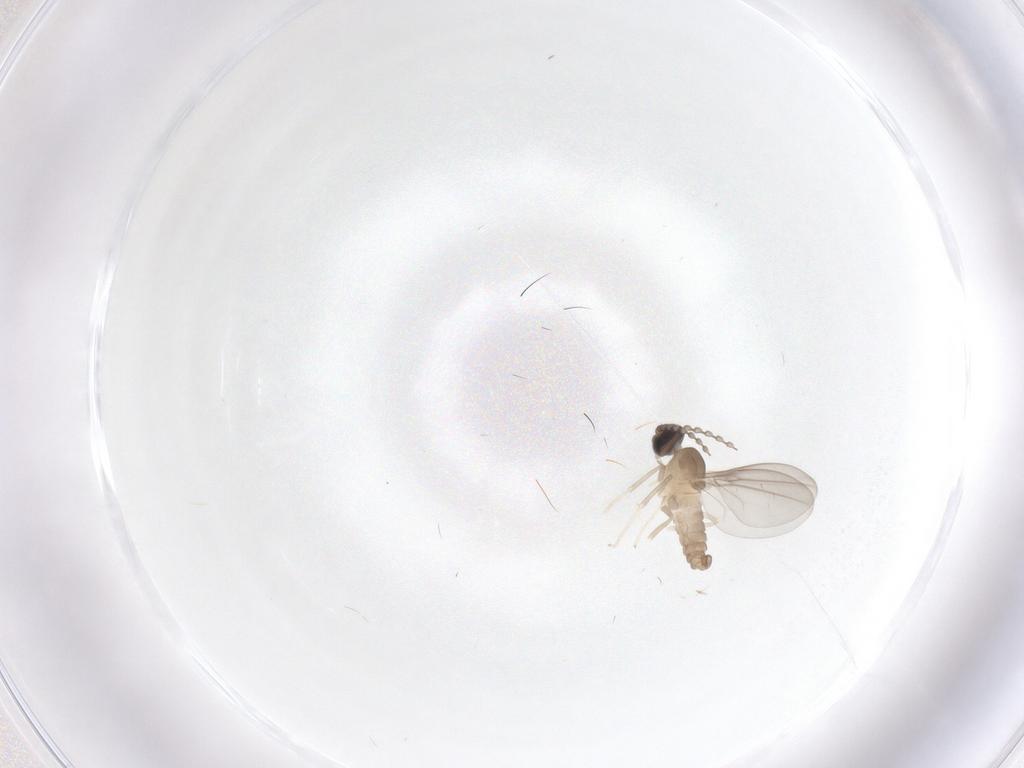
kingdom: Animalia
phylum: Arthropoda
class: Insecta
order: Diptera
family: Cecidomyiidae
